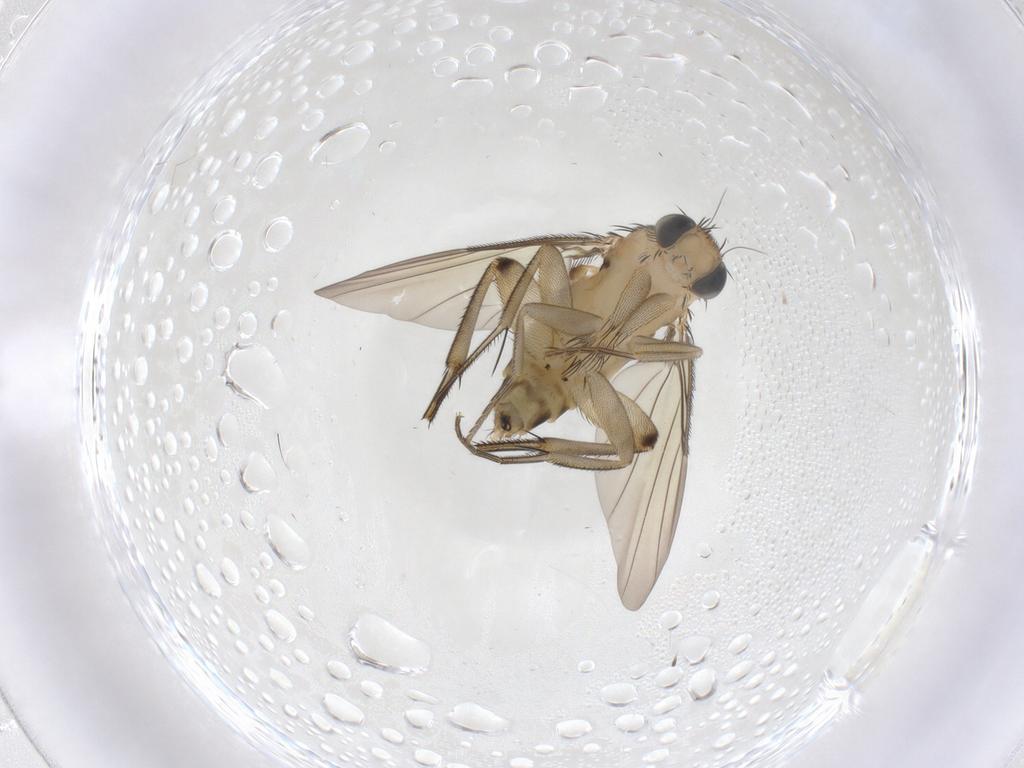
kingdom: Animalia
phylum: Arthropoda
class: Insecta
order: Diptera
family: Phoridae
